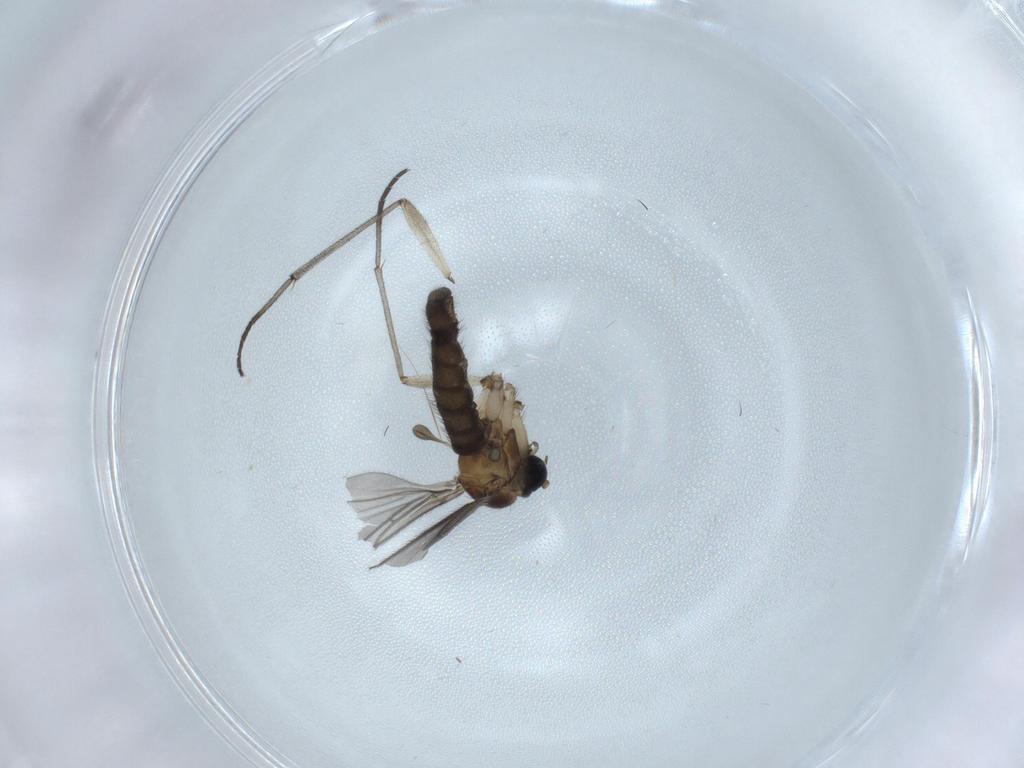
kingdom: Animalia
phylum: Arthropoda
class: Insecta
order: Diptera
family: Sciaridae
